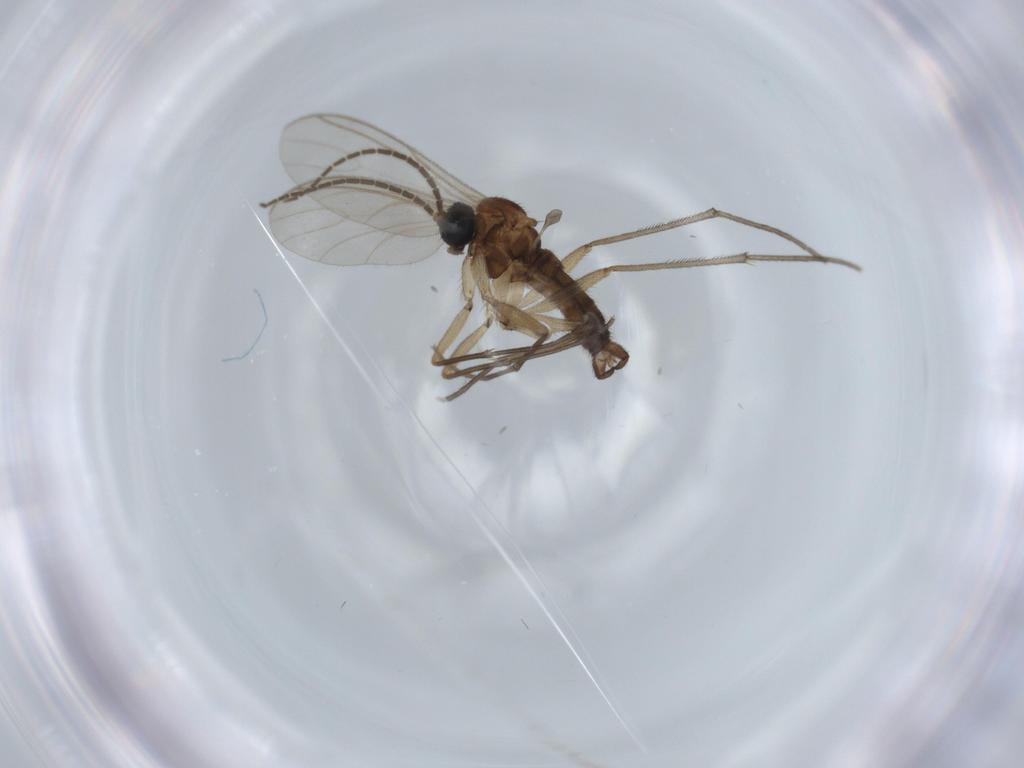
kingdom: Animalia
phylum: Arthropoda
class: Insecta
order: Diptera
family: Sciaridae
